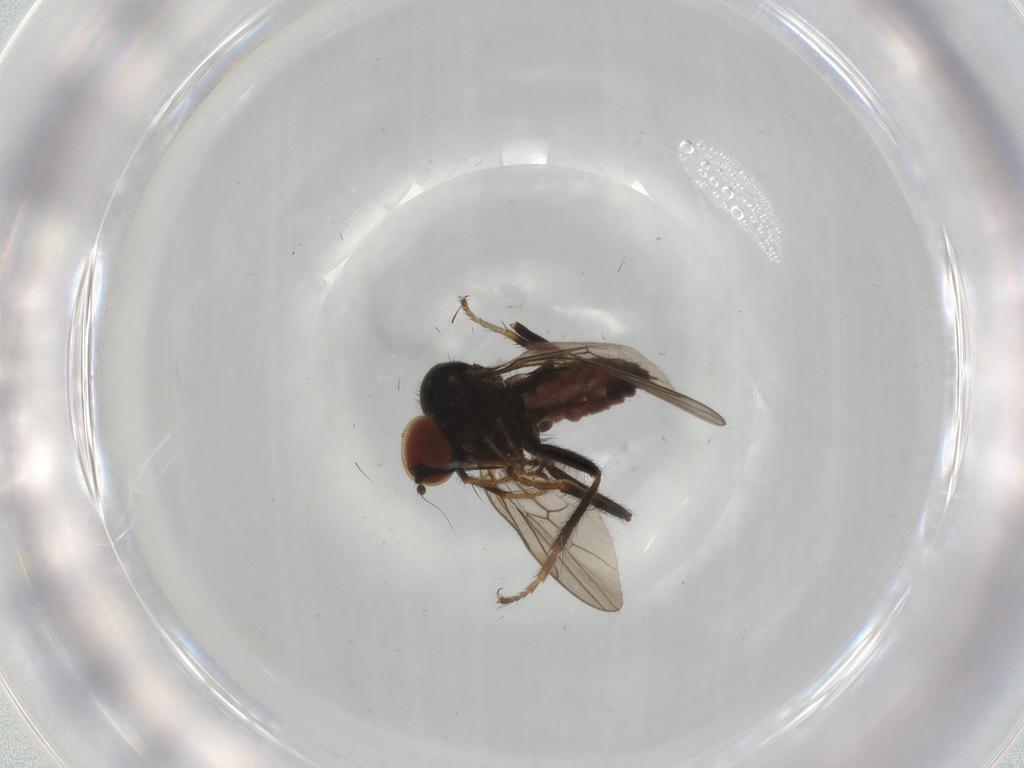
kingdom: Animalia
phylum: Arthropoda
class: Insecta
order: Diptera
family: Hybotidae
